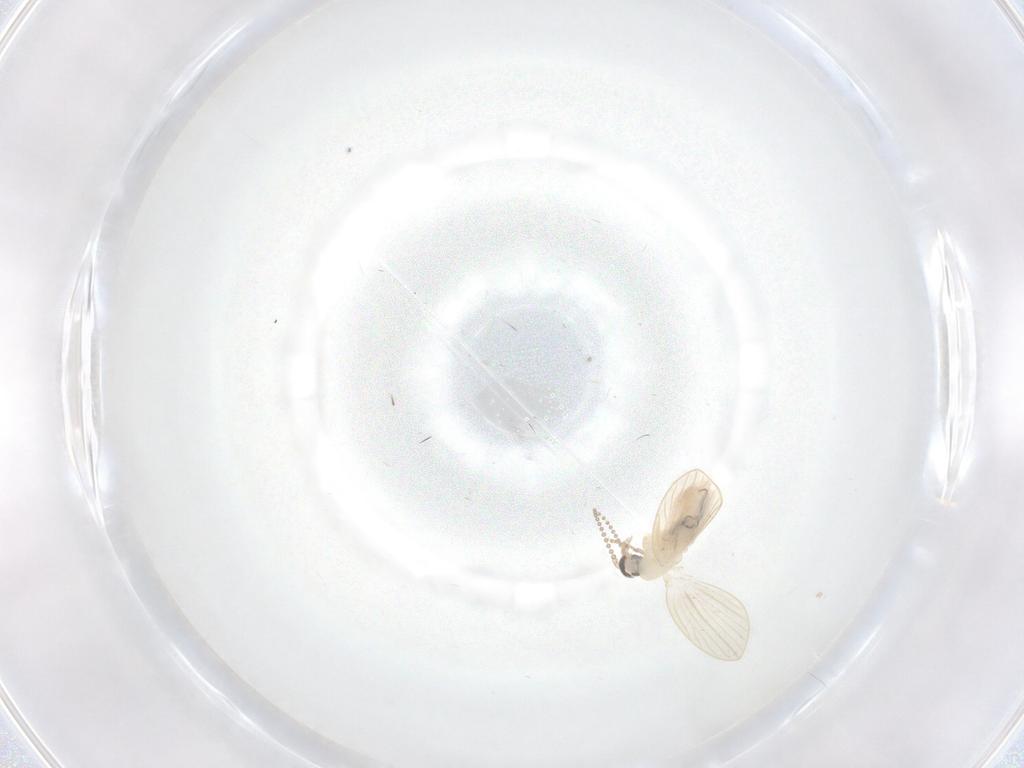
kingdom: Animalia
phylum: Arthropoda
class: Insecta
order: Diptera
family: Psychodidae
